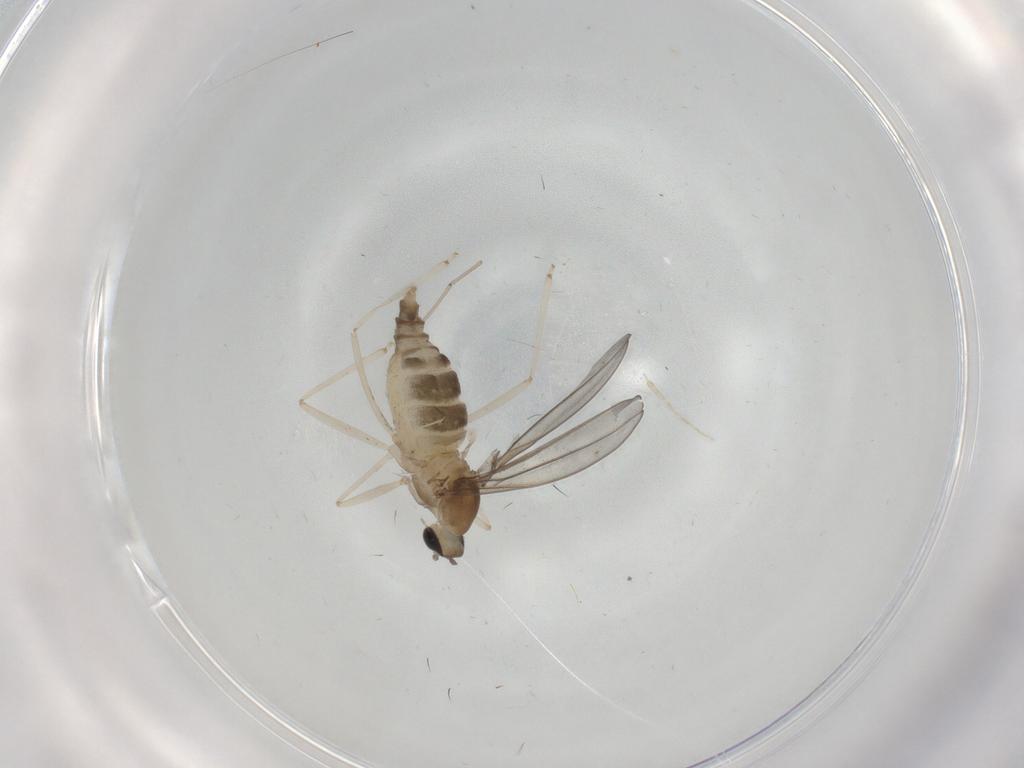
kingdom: Animalia
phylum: Arthropoda
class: Insecta
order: Diptera
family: Cecidomyiidae
